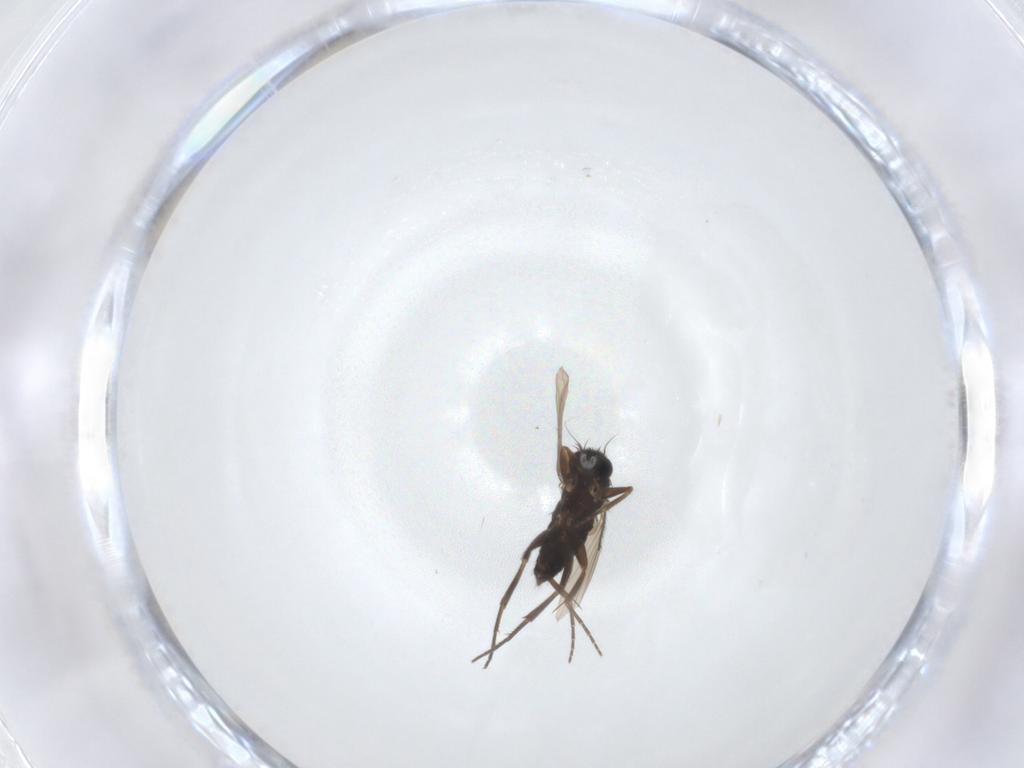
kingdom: Animalia
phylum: Arthropoda
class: Insecta
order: Diptera
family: Phoridae
